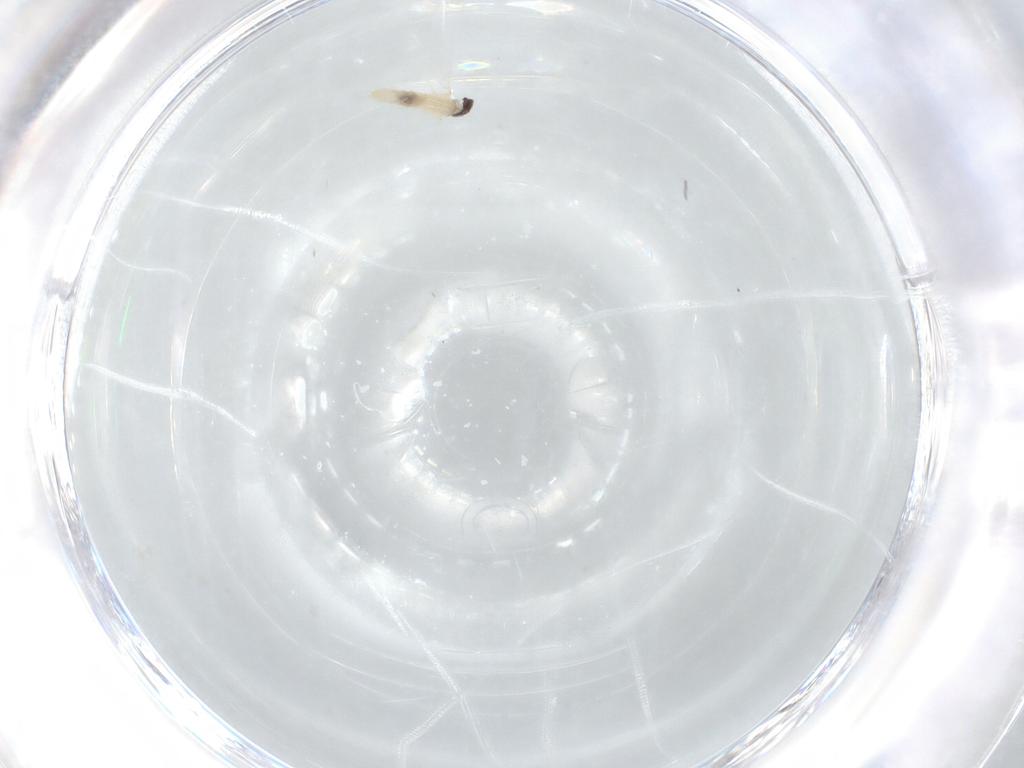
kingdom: Animalia
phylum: Arthropoda
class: Insecta
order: Diptera
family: Cecidomyiidae
